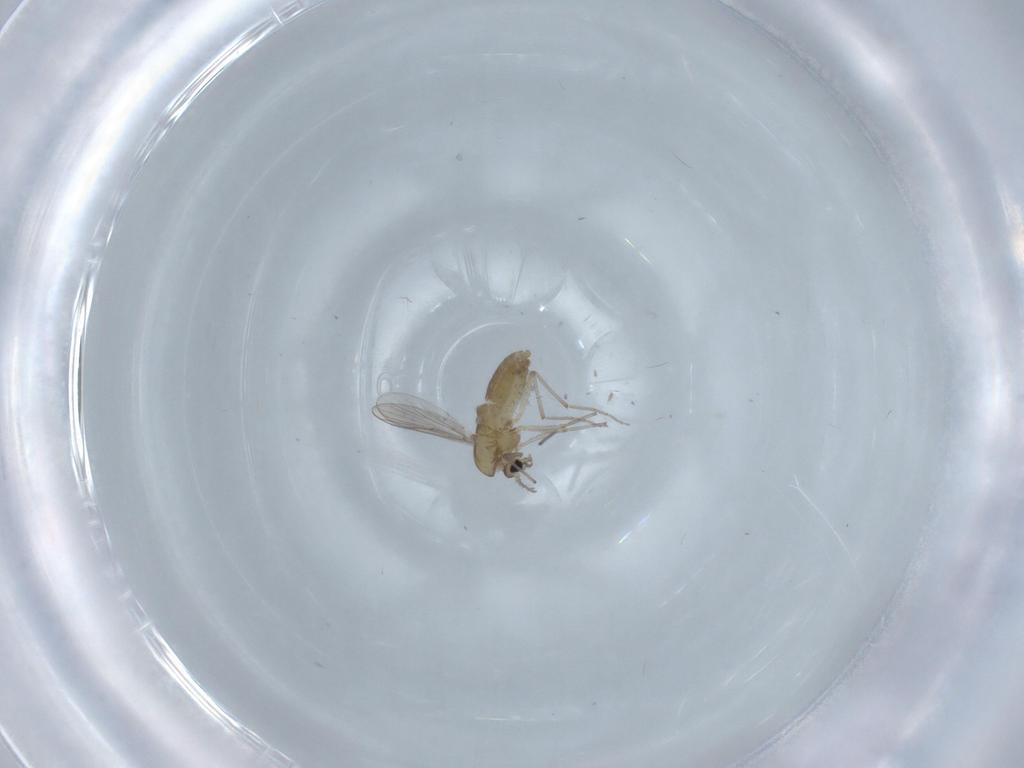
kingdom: Animalia
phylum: Arthropoda
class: Insecta
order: Diptera
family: Chironomidae
